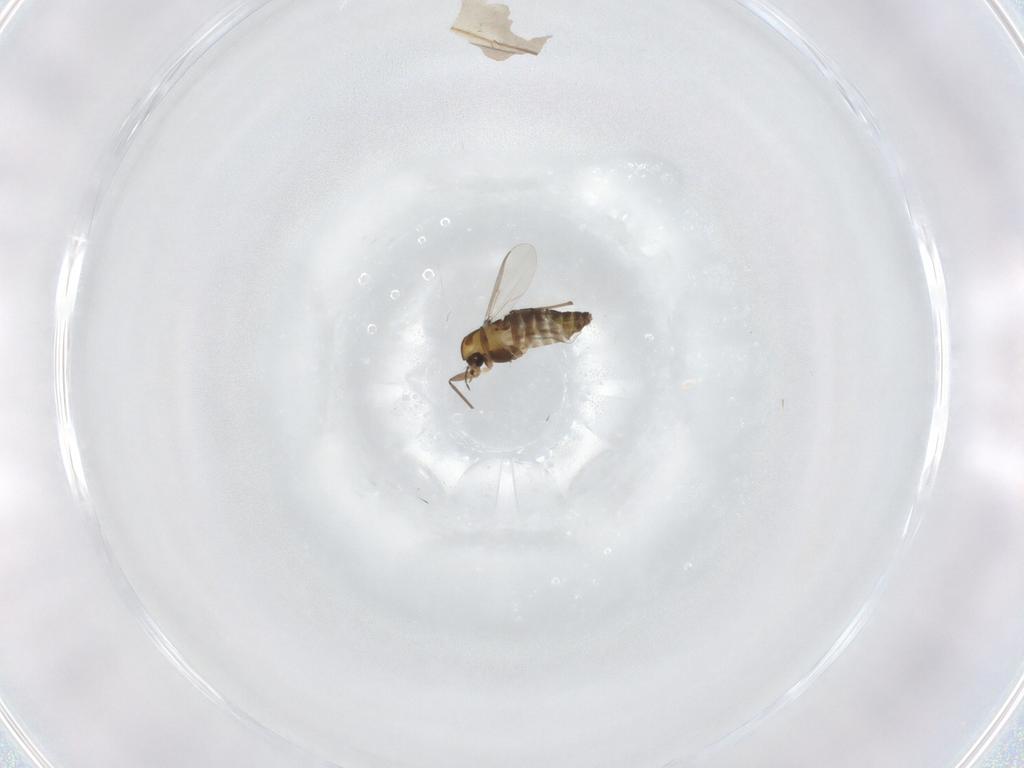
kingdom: Animalia
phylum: Arthropoda
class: Insecta
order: Diptera
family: Chironomidae
